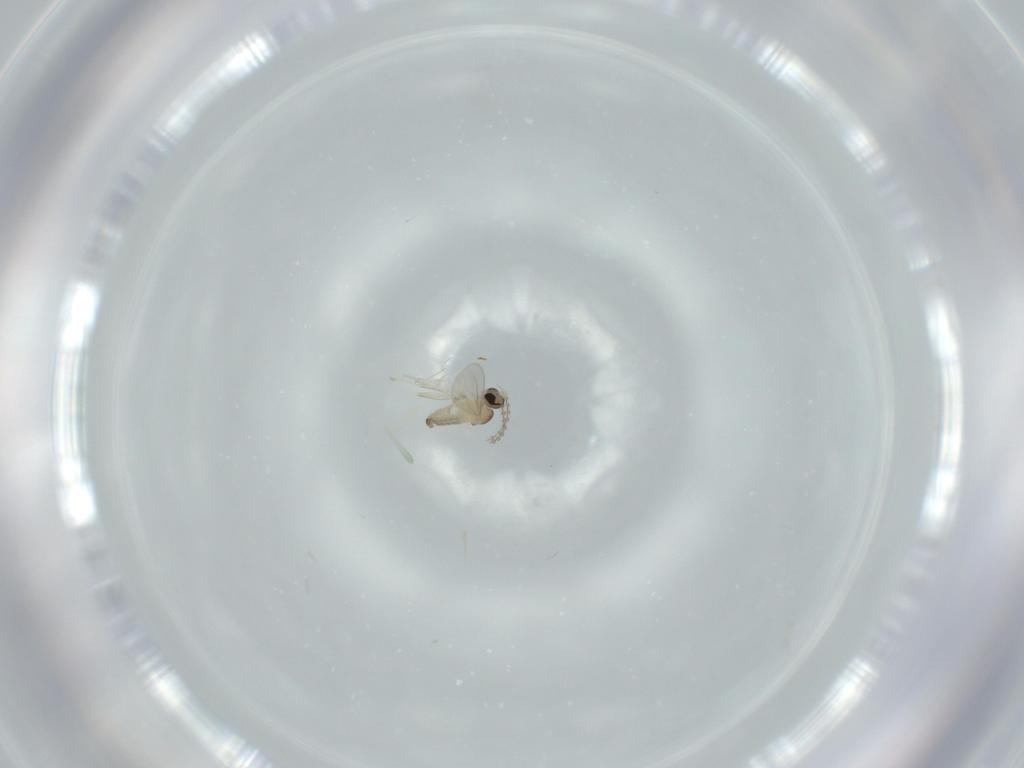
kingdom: Animalia
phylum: Arthropoda
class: Insecta
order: Diptera
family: Cecidomyiidae
